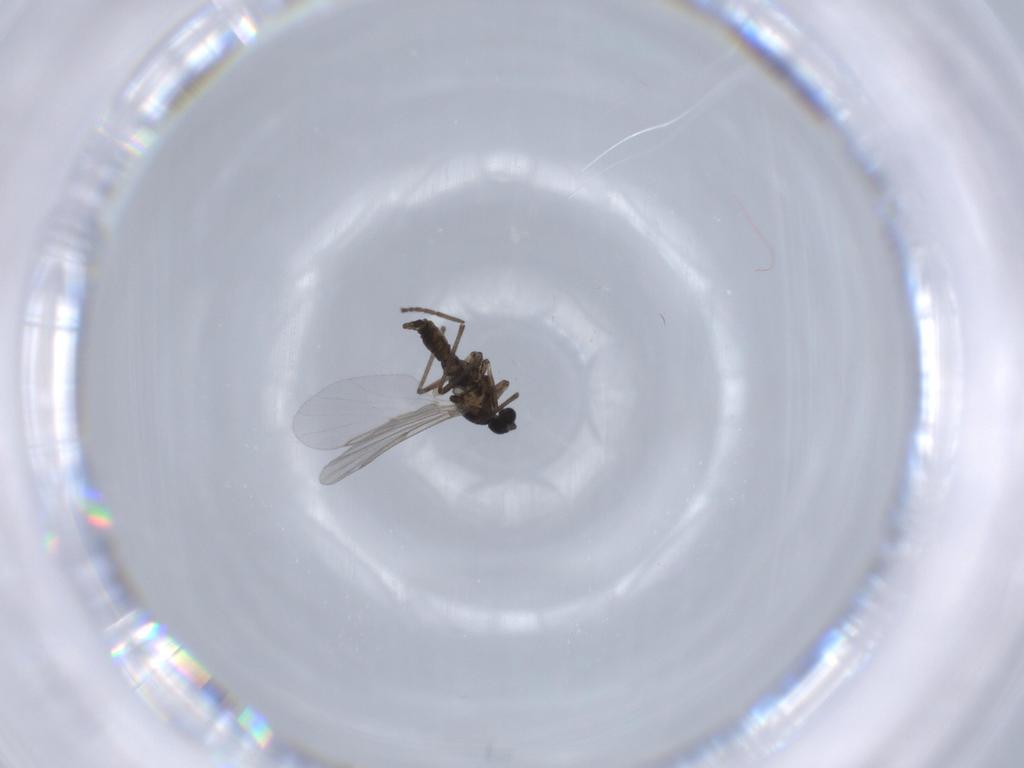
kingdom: Animalia
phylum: Arthropoda
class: Insecta
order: Diptera
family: Cecidomyiidae
